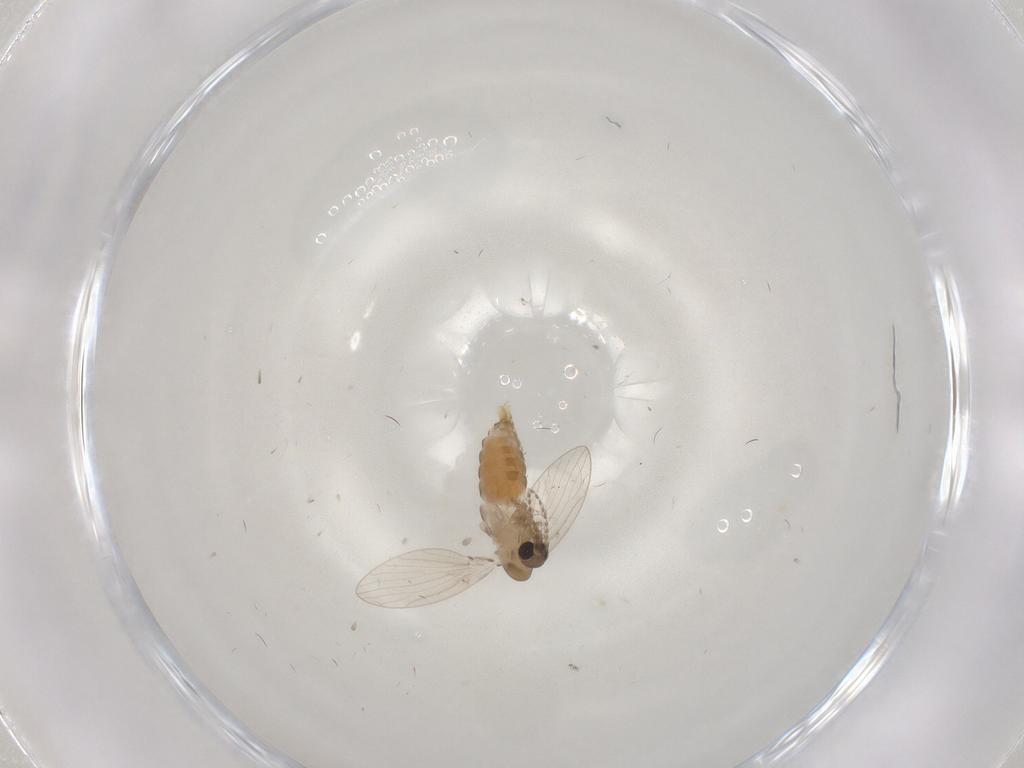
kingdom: Animalia
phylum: Arthropoda
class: Insecta
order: Diptera
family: Psychodidae
